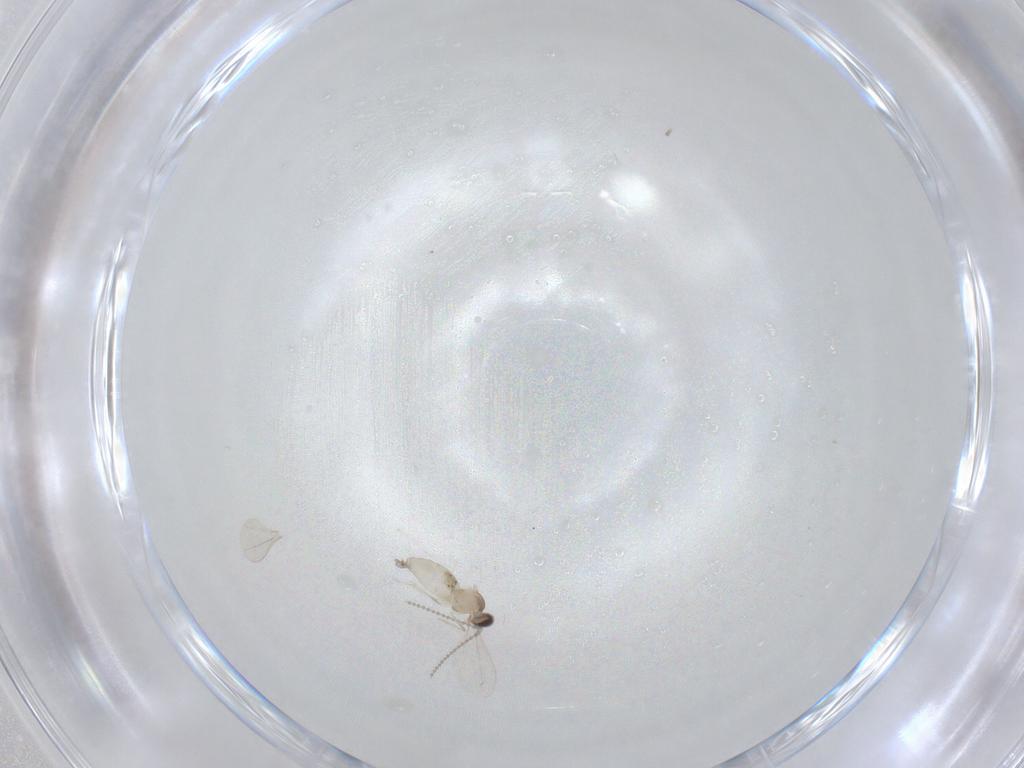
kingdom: Animalia
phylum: Arthropoda
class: Insecta
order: Diptera
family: Cecidomyiidae
